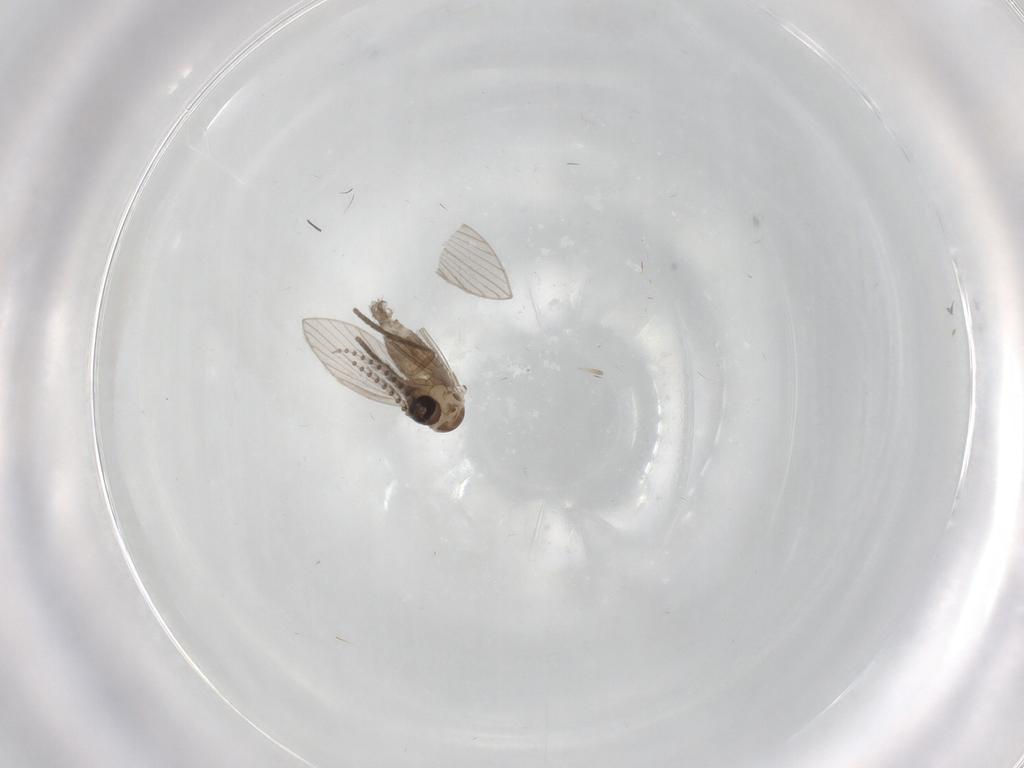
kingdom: Animalia
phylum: Arthropoda
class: Insecta
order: Diptera
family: Psychodidae
